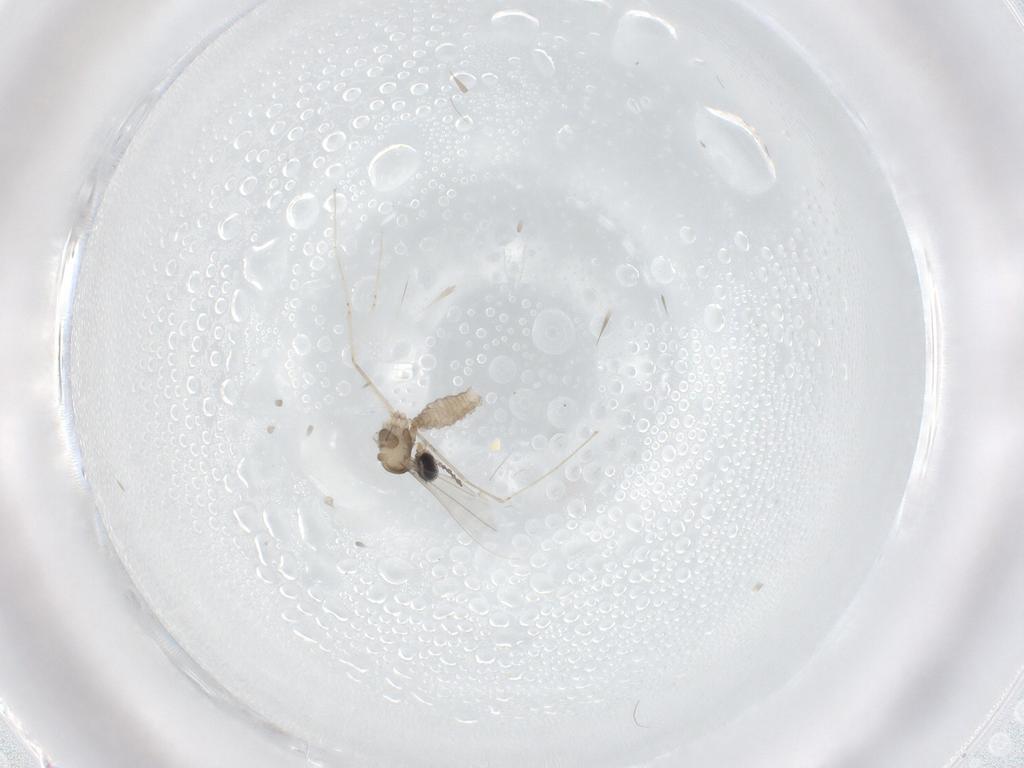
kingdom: Animalia
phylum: Arthropoda
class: Insecta
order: Diptera
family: Cecidomyiidae
